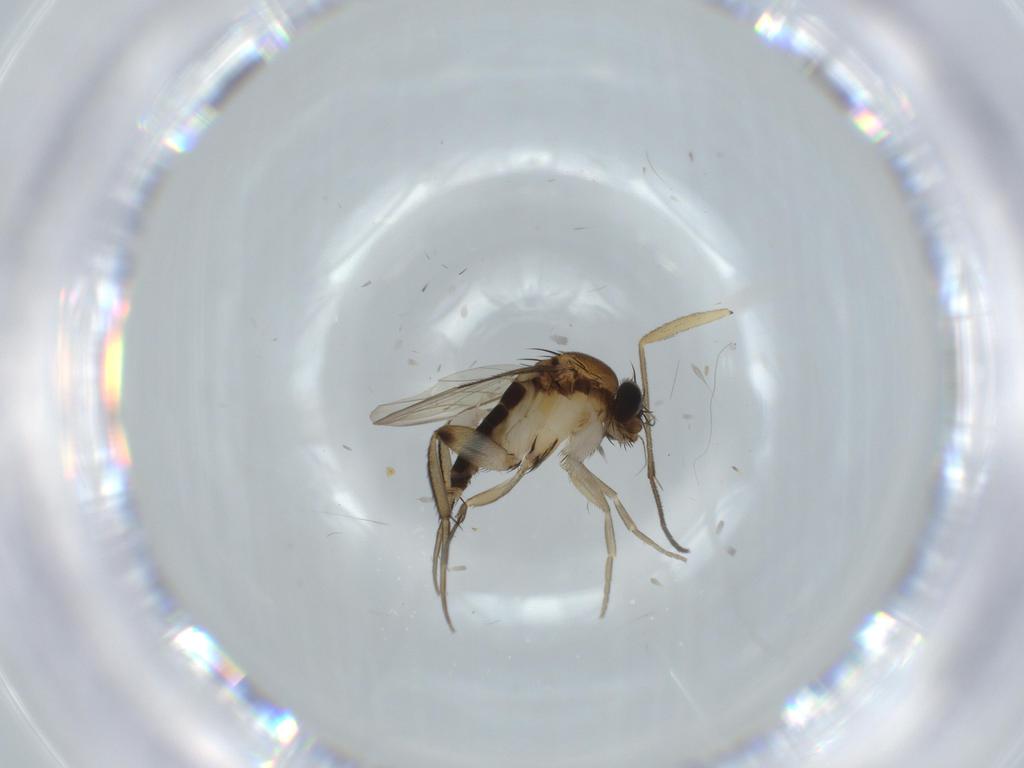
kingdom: Animalia
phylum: Arthropoda
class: Insecta
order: Diptera
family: Phoridae
